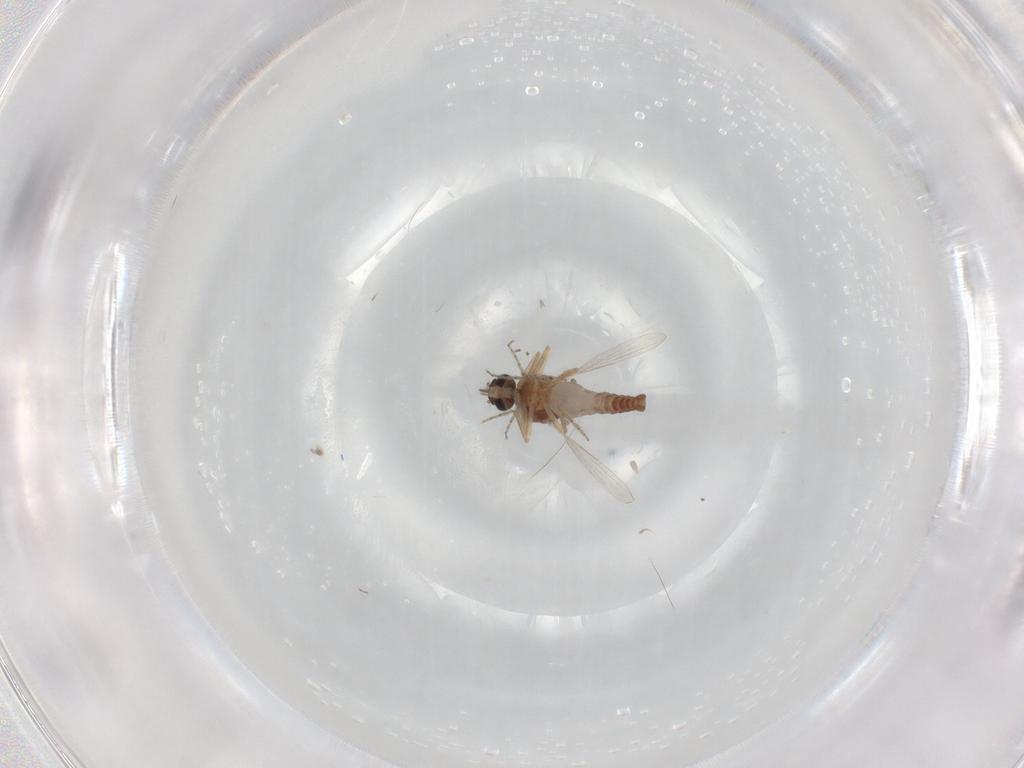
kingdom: Animalia
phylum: Arthropoda
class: Insecta
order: Diptera
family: Ceratopogonidae
